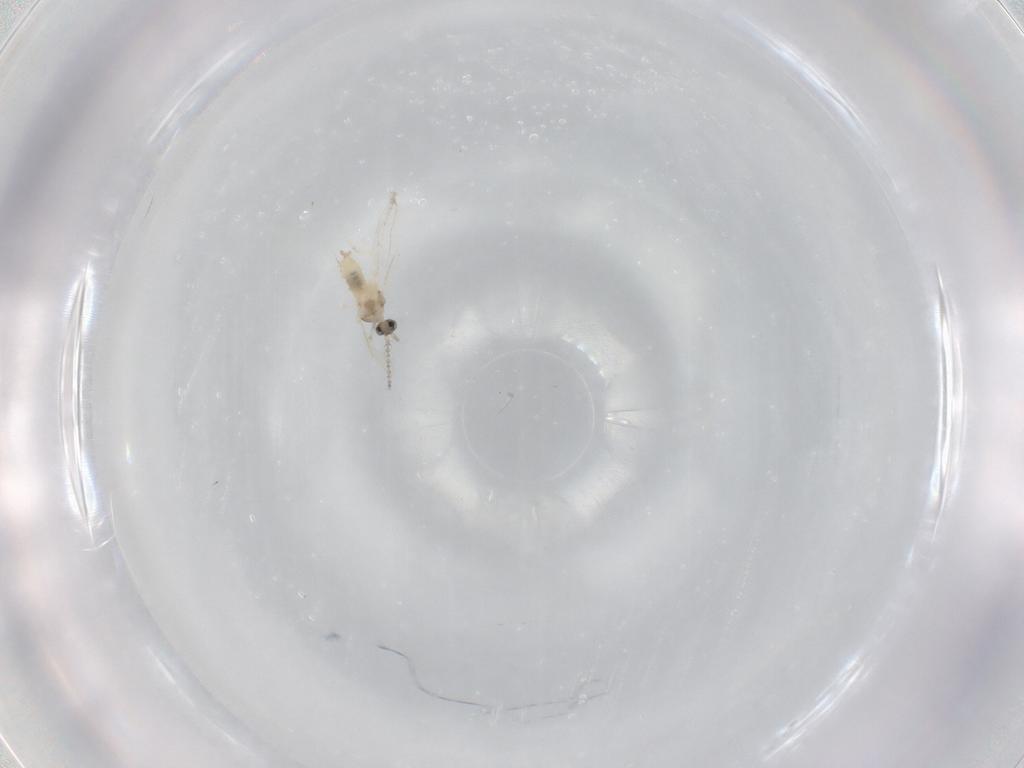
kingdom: Animalia
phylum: Arthropoda
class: Insecta
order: Diptera
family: Cecidomyiidae
